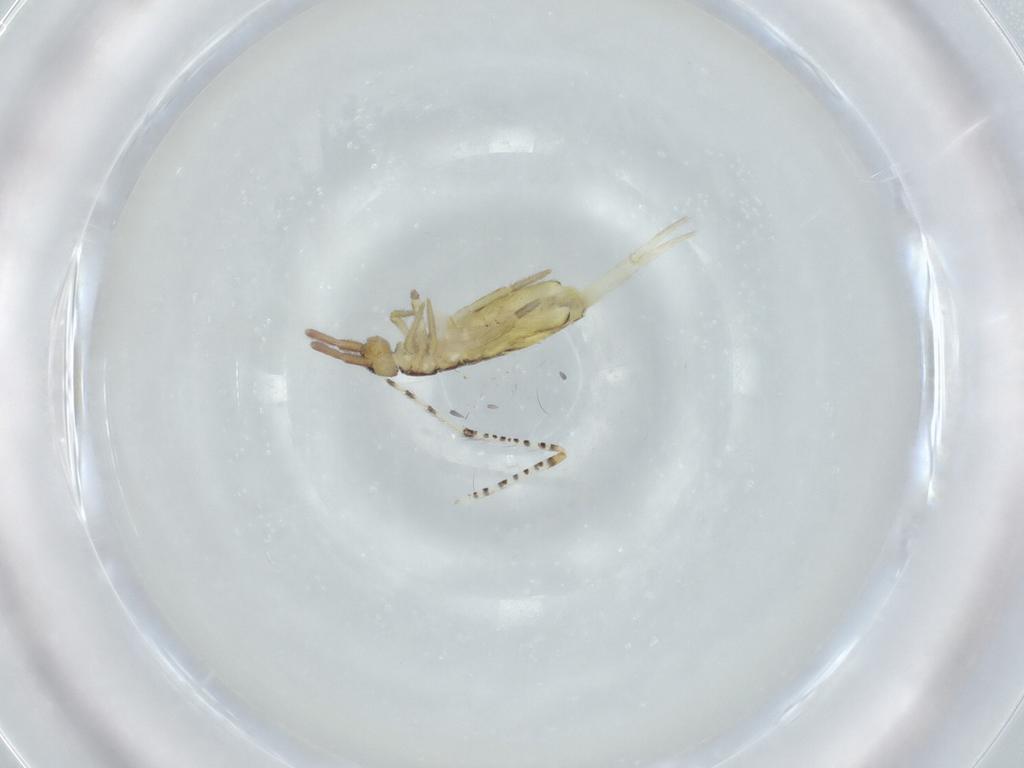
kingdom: Animalia
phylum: Arthropoda
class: Collembola
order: Entomobryomorpha
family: Entomobryidae
